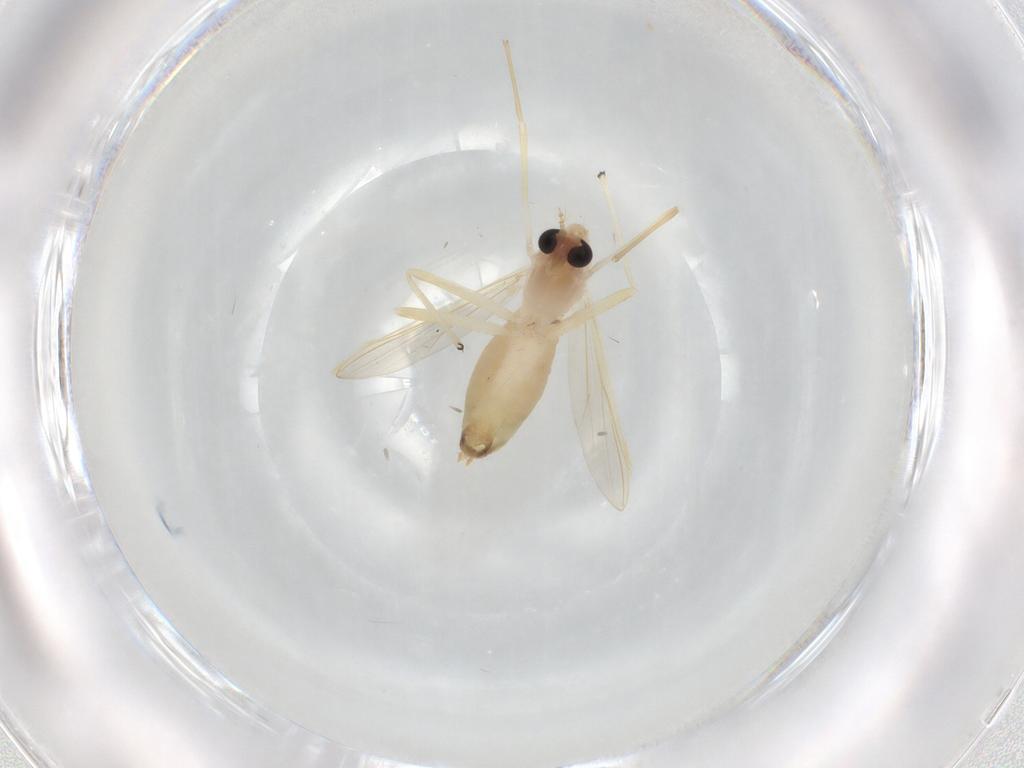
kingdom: Animalia
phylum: Arthropoda
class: Insecta
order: Diptera
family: Chironomidae
